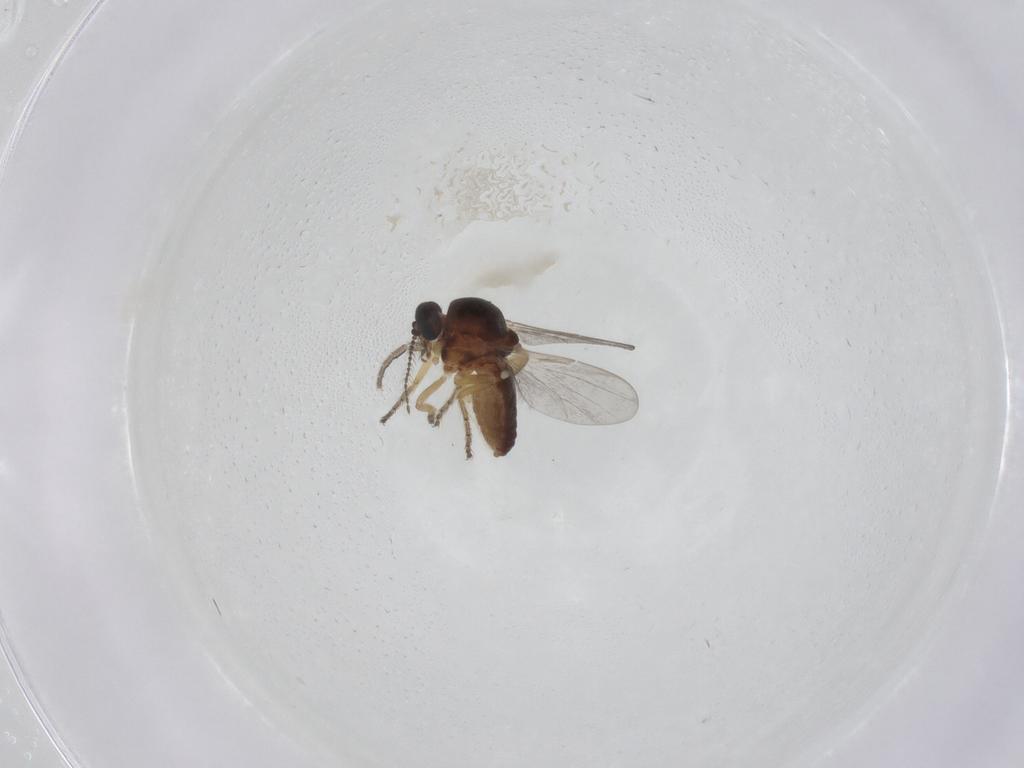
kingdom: Animalia
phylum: Arthropoda
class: Insecta
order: Diptera
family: Ceratopogonidae
